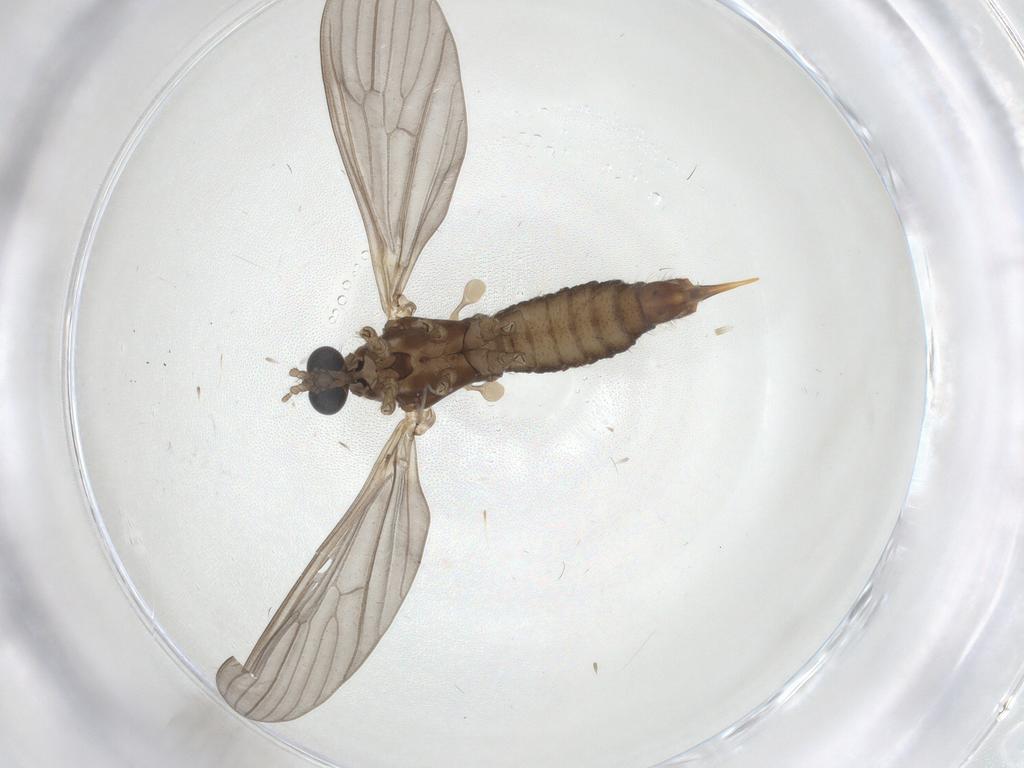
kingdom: Animalia
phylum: Arthropoda
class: Insecta
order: Diptera
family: Limoniidae
